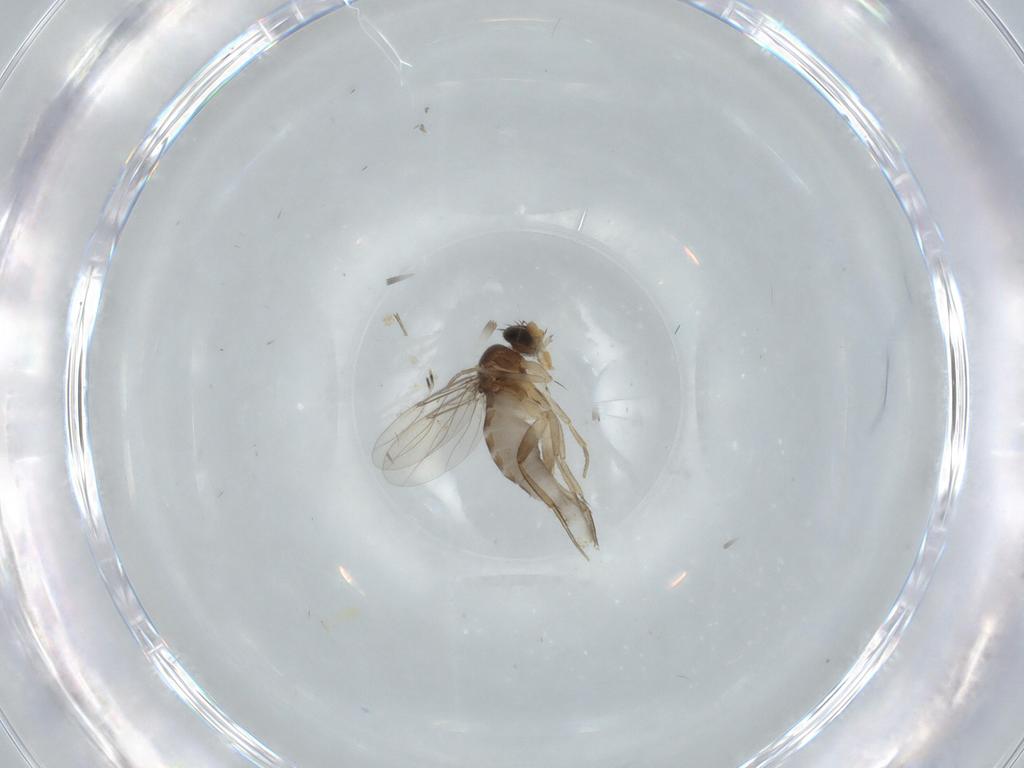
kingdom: Animalia
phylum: Arthropoda
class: Insecta
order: Diptera
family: Phoridae
